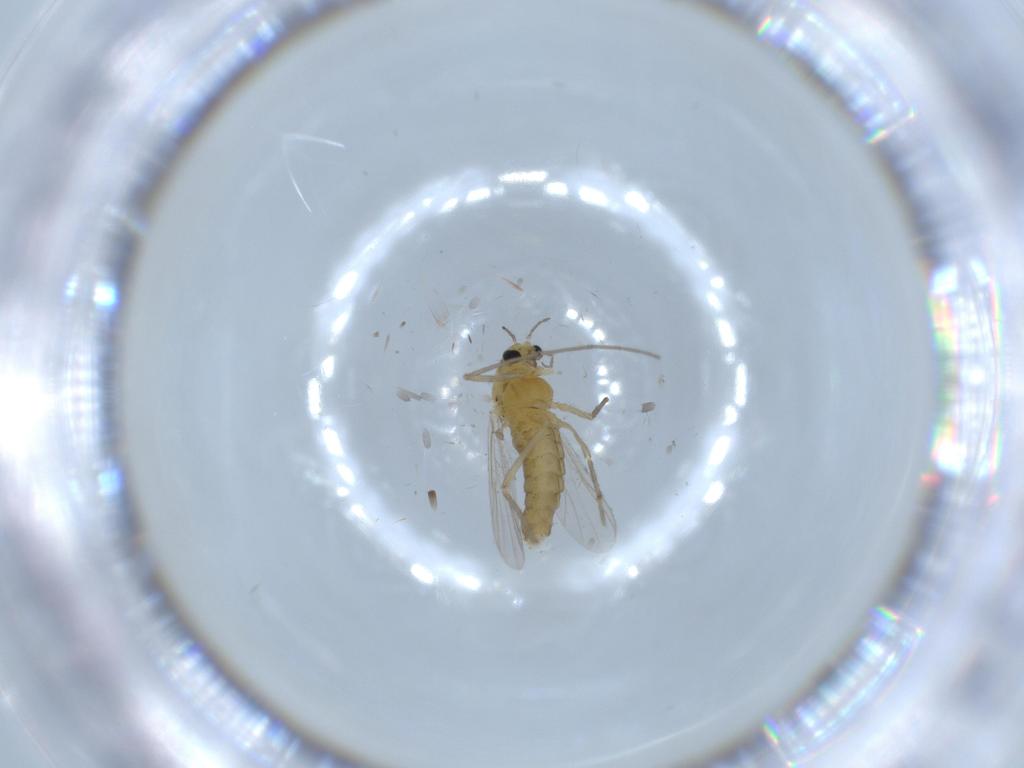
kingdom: Animalia
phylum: Arthropoda
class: Insecta
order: Diptera
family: Chironomidae
